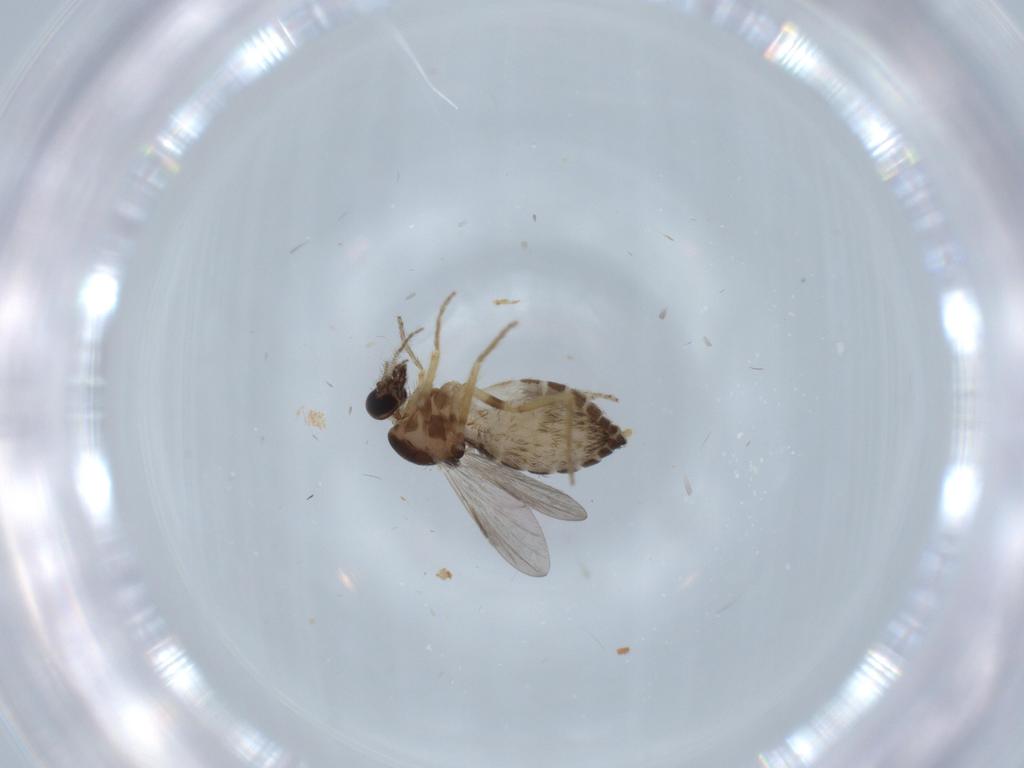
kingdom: Animalia
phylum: Arthropoda
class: Insecta
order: Diptera
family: Ceratopogonidae
